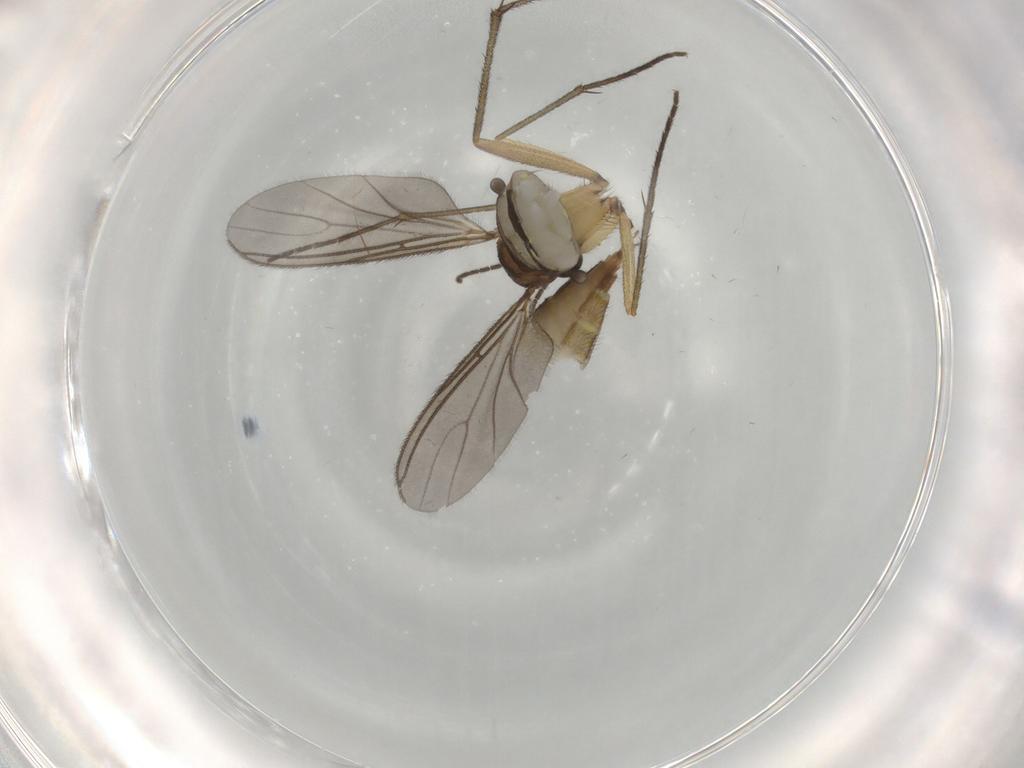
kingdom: Animalia
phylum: Arthropoda
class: Insecta
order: Diptera
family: Sciaridae
